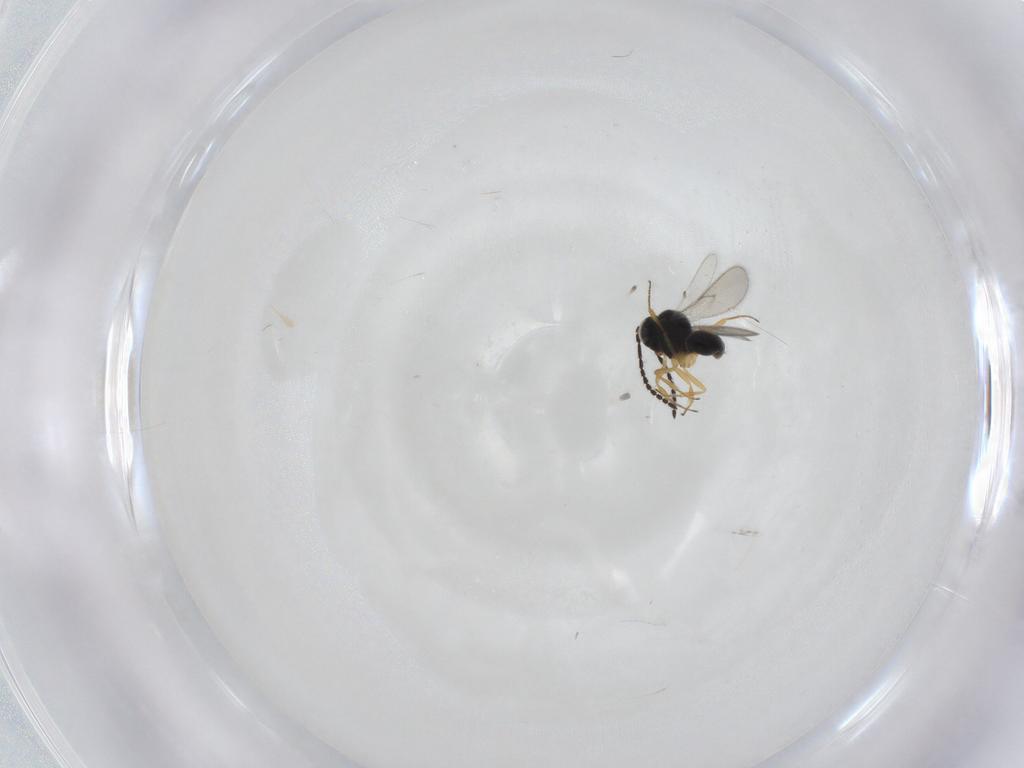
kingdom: Animalia
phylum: Arthropoda
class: Insecta
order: Hymenoptera
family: Scelionidae
